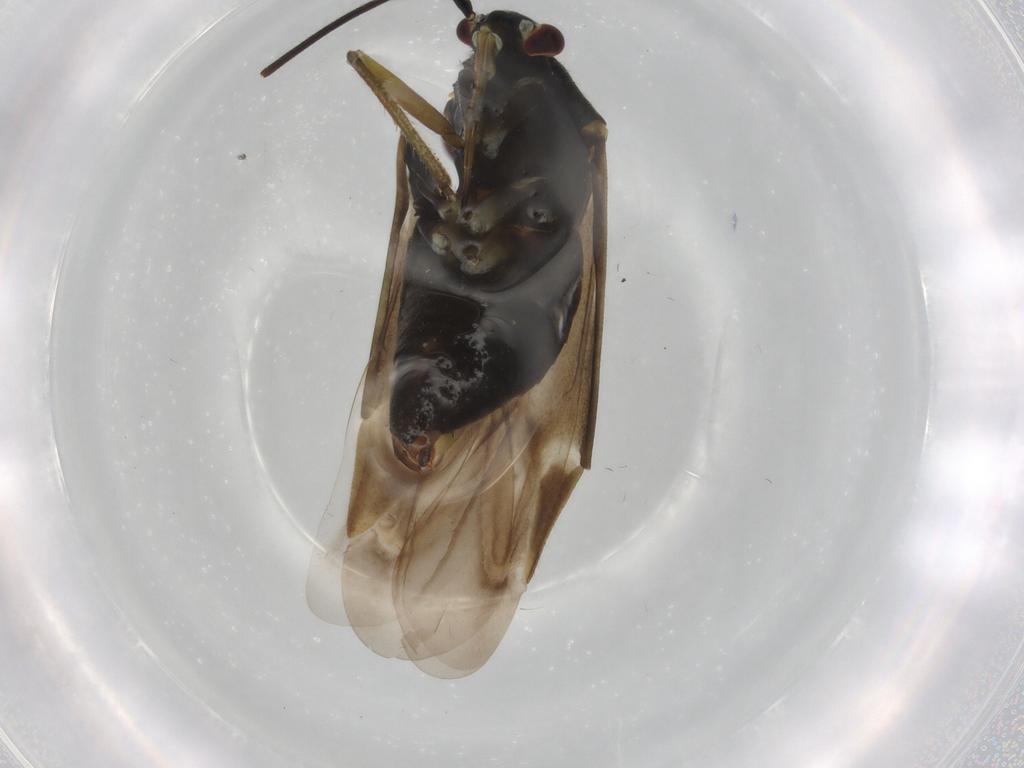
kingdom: Animalia
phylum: Arthropoda
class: Insecta
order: Hemiptera
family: Miridae
